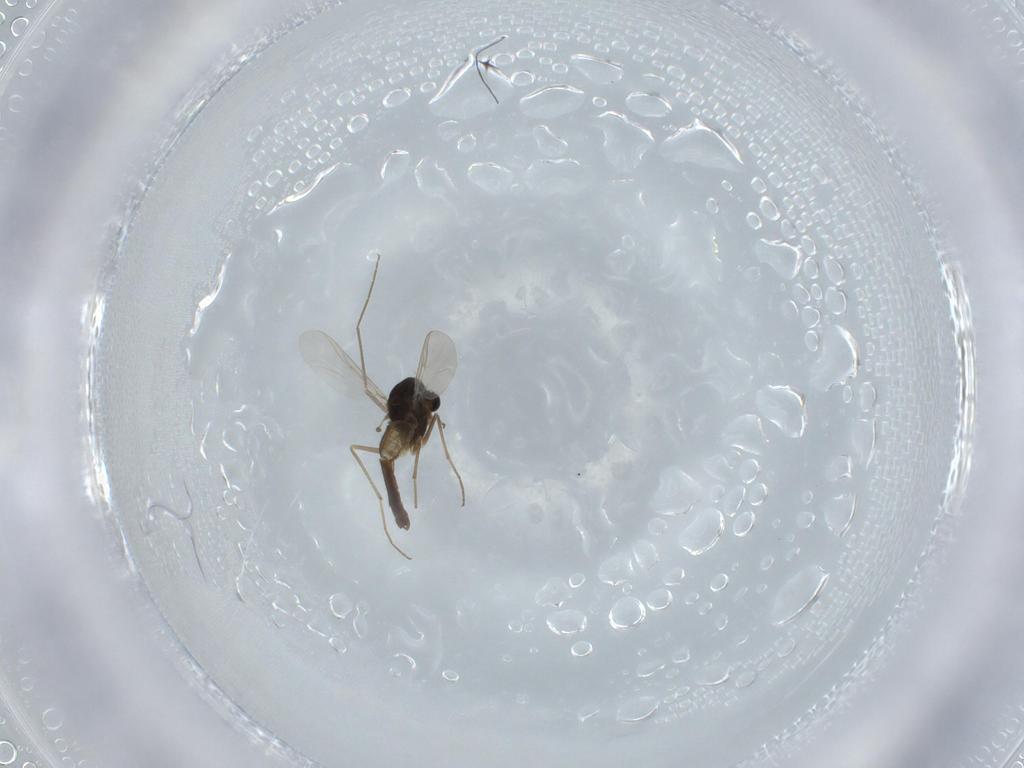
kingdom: Animalia
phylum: Arthropoda
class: Insecta
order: Diptera
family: Chironomidae
